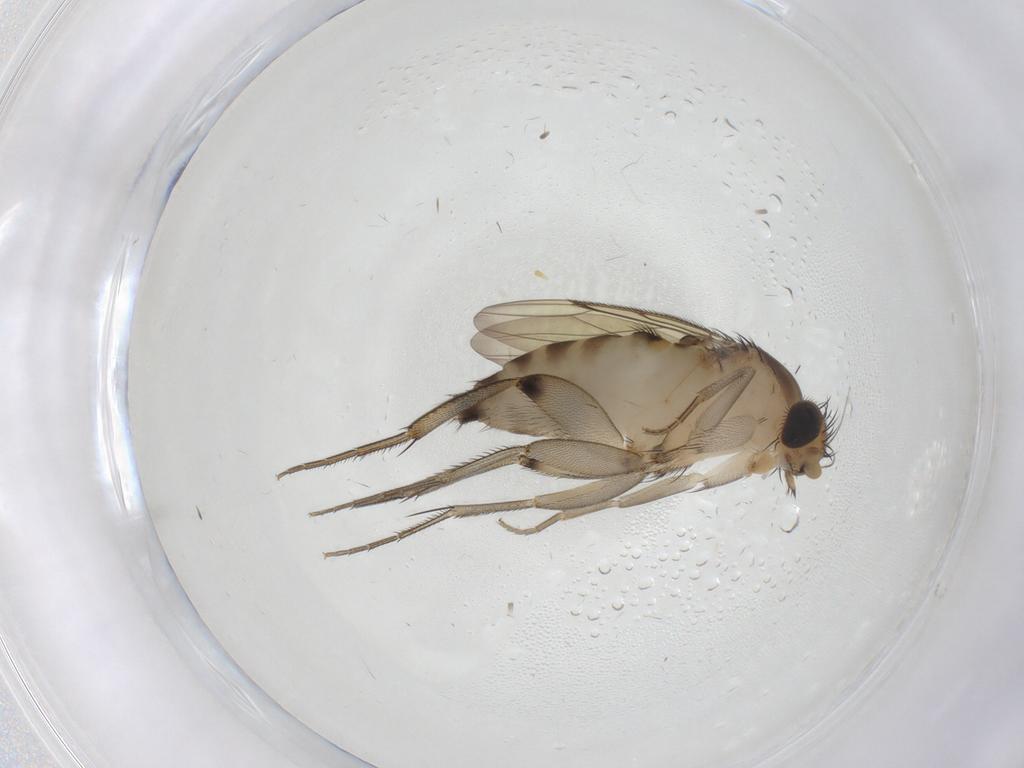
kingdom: Animalia
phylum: Arthropoda
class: Insecta
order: Diptera
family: Phoridae
